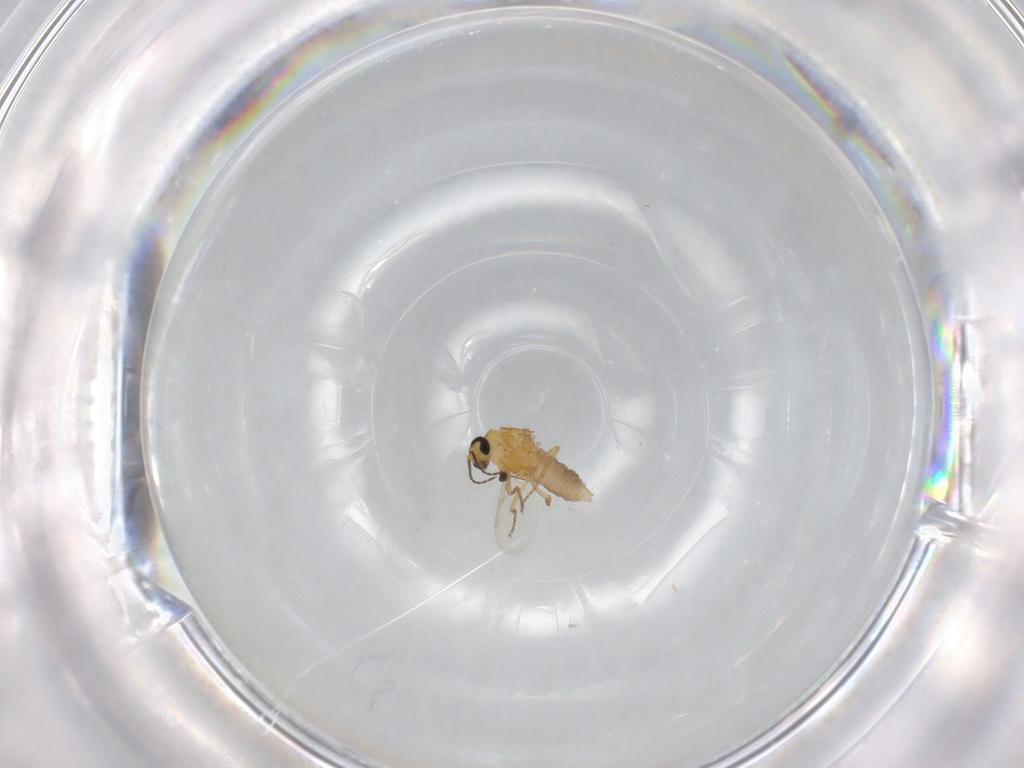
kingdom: Animalia
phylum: Arthropoda
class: Insecta
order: Diptera
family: Ceratopogonidae
